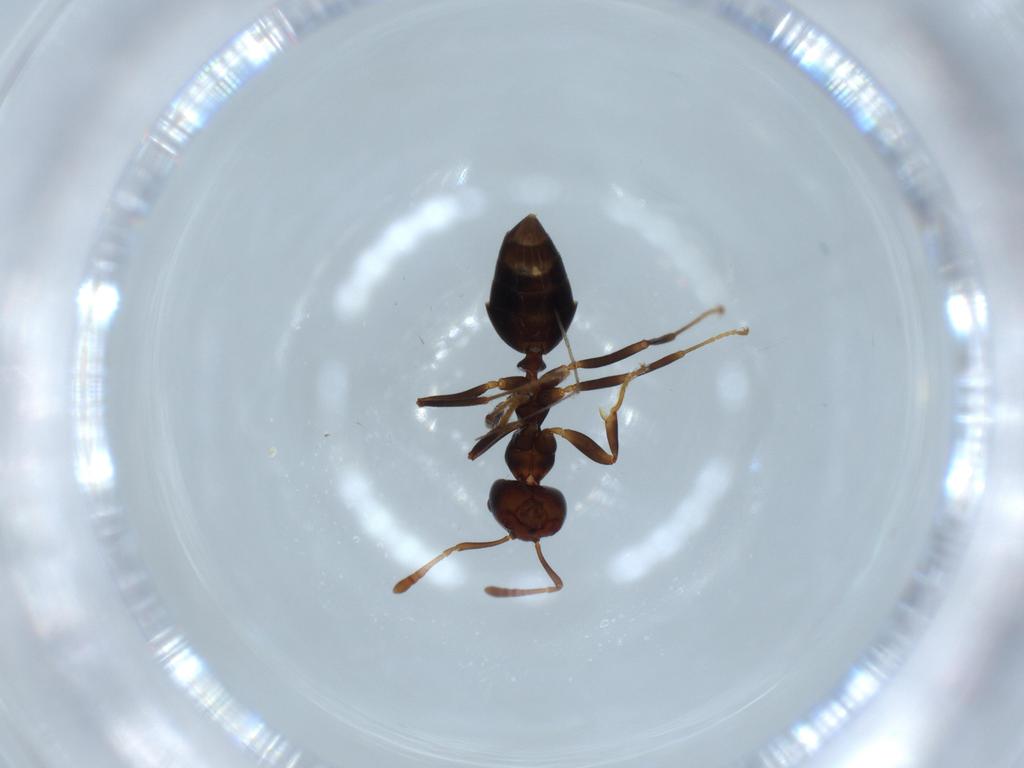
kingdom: Animalia
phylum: Arthropoda
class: Insecta
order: Hymenoptera
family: Formicidae
